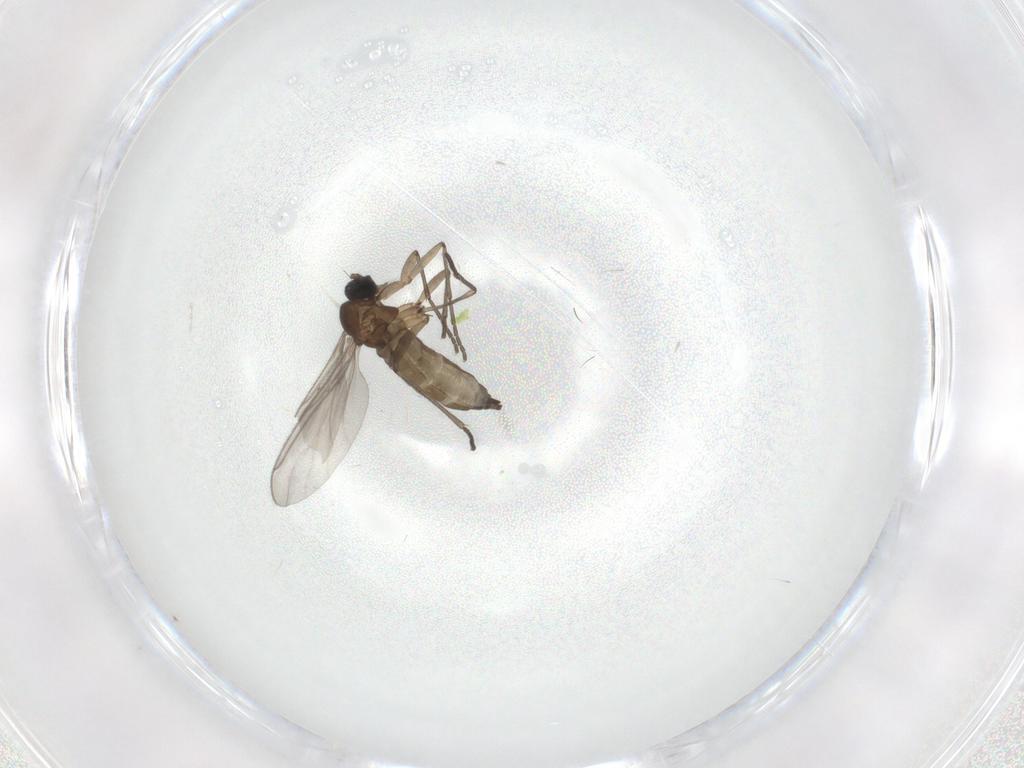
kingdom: Animalia
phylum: Arthropoda
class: Insecta
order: Diptera
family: Sciaridae
